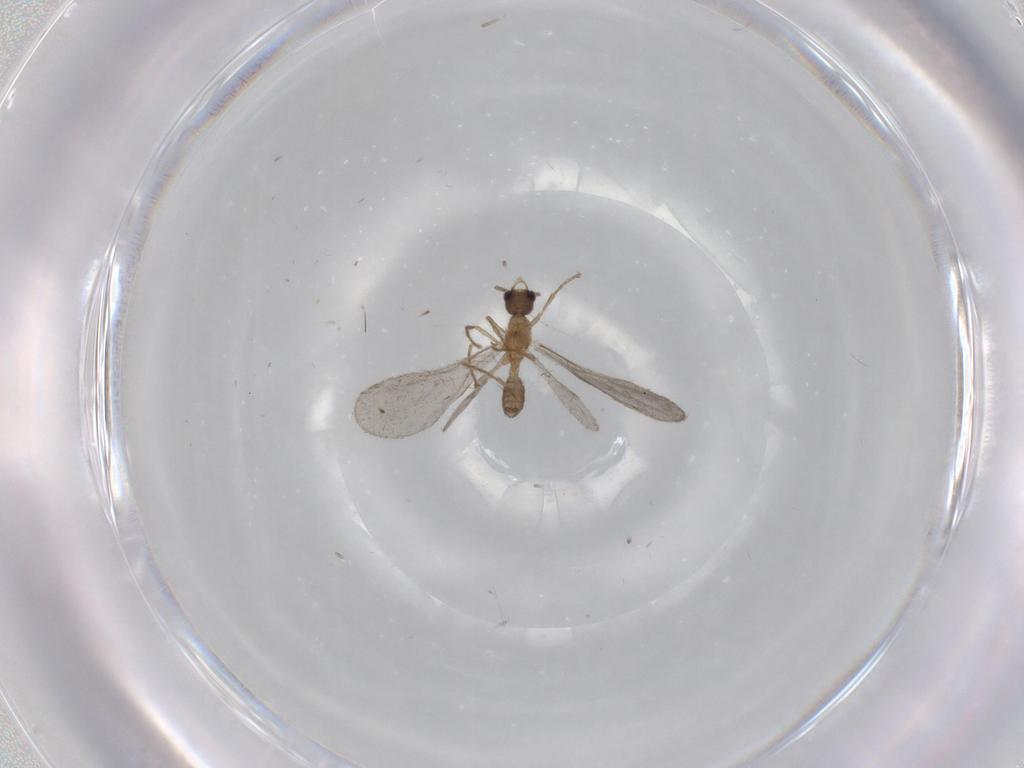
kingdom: Animalia
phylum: Arthropoda
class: Insecta
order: Hymenoptera
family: Formicidae
